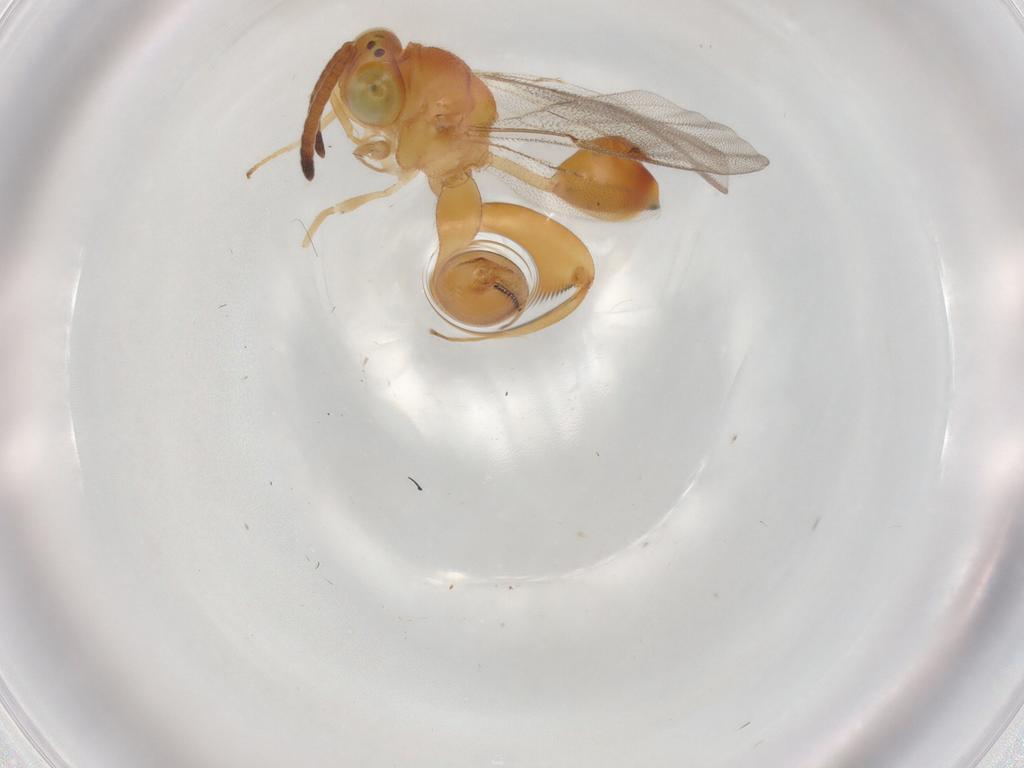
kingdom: Animalia
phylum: Arthropoda
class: Insecta
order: Hymenoptera
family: Chalcididae
